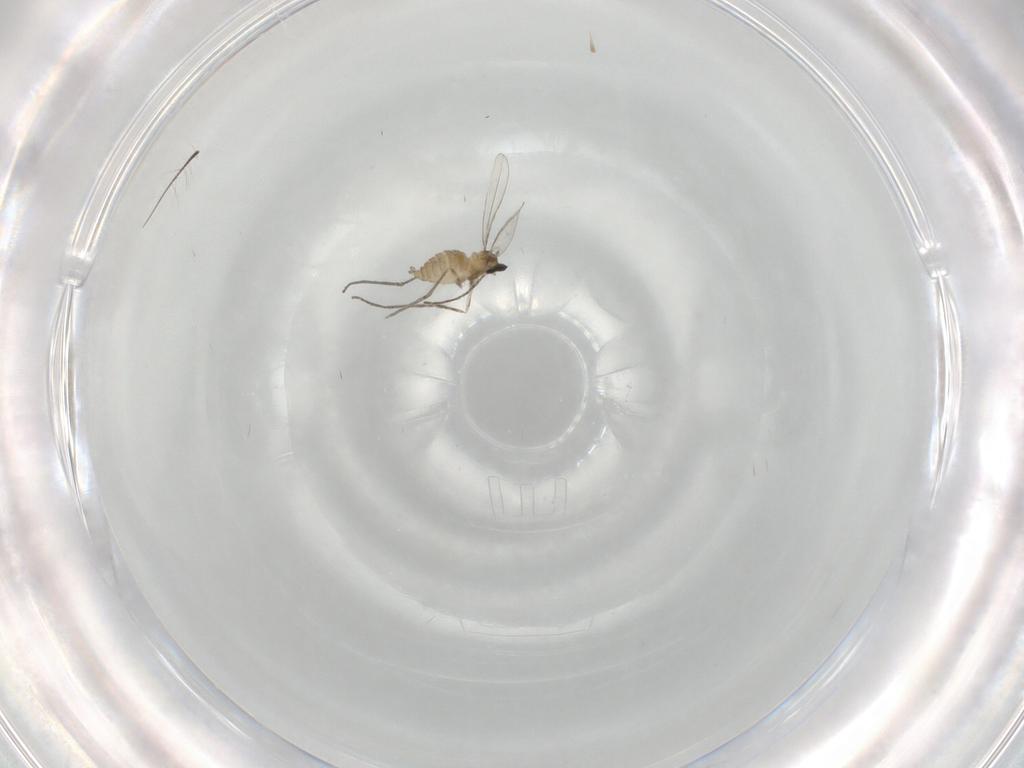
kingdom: Animalia
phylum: Arthropoda
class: Insecta
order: Diptera
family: Cecidomyiidae
